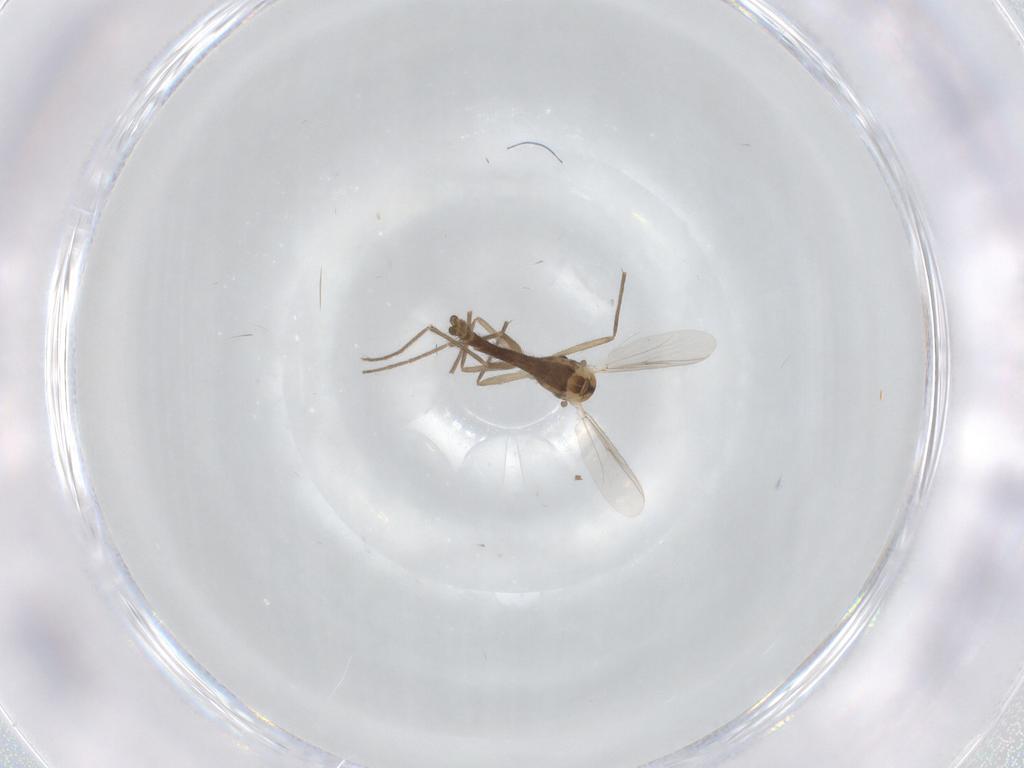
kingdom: Animalia
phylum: Arthropoda
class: Insecta
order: Diptera
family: Chironomidae
